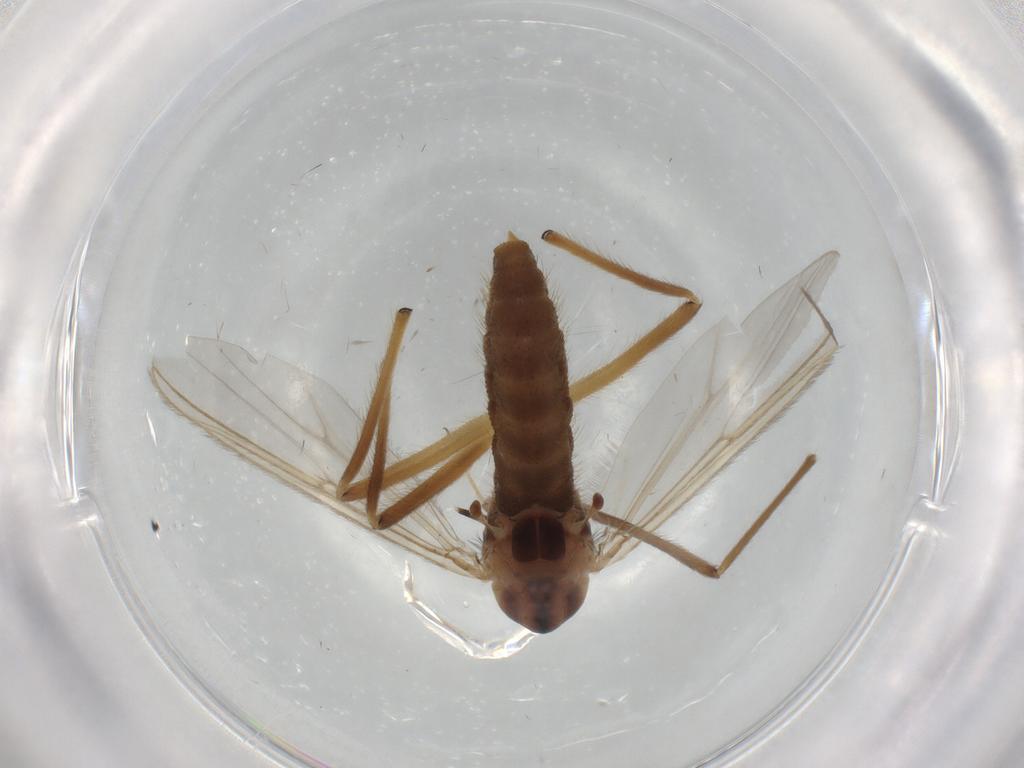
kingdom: Animalia
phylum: Arthropoda
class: Insecta
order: Diptera
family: Chironomidae
